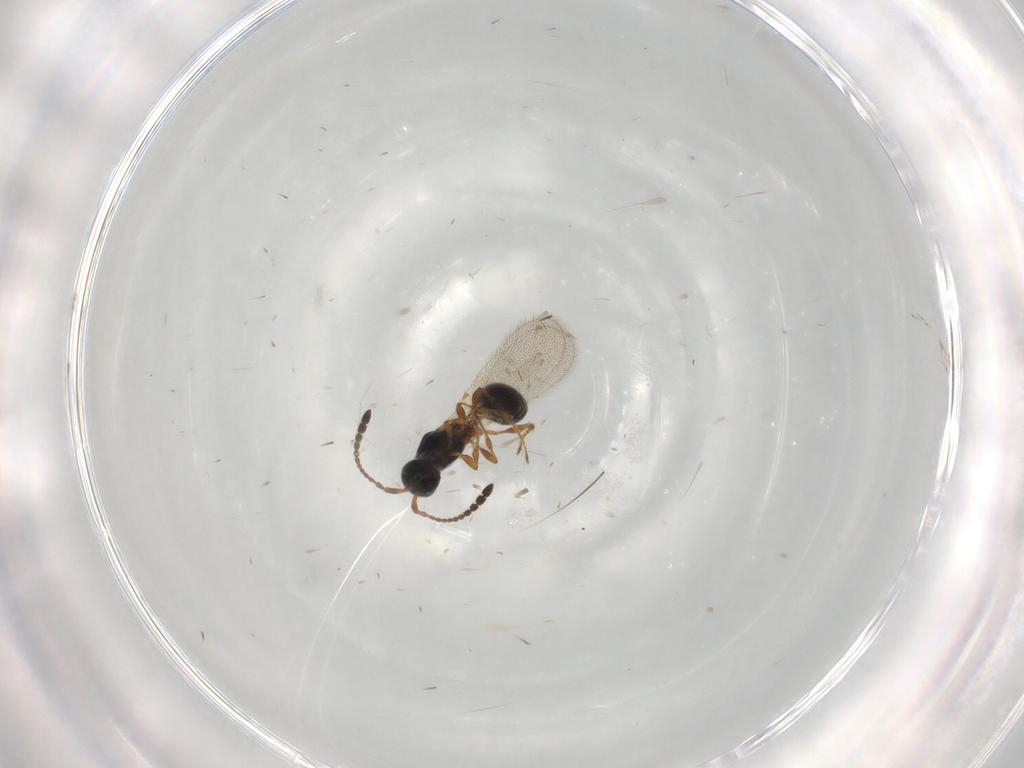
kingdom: Animalia
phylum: Arthropoda
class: Insecta
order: Hymenoptera
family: Diapriidae
